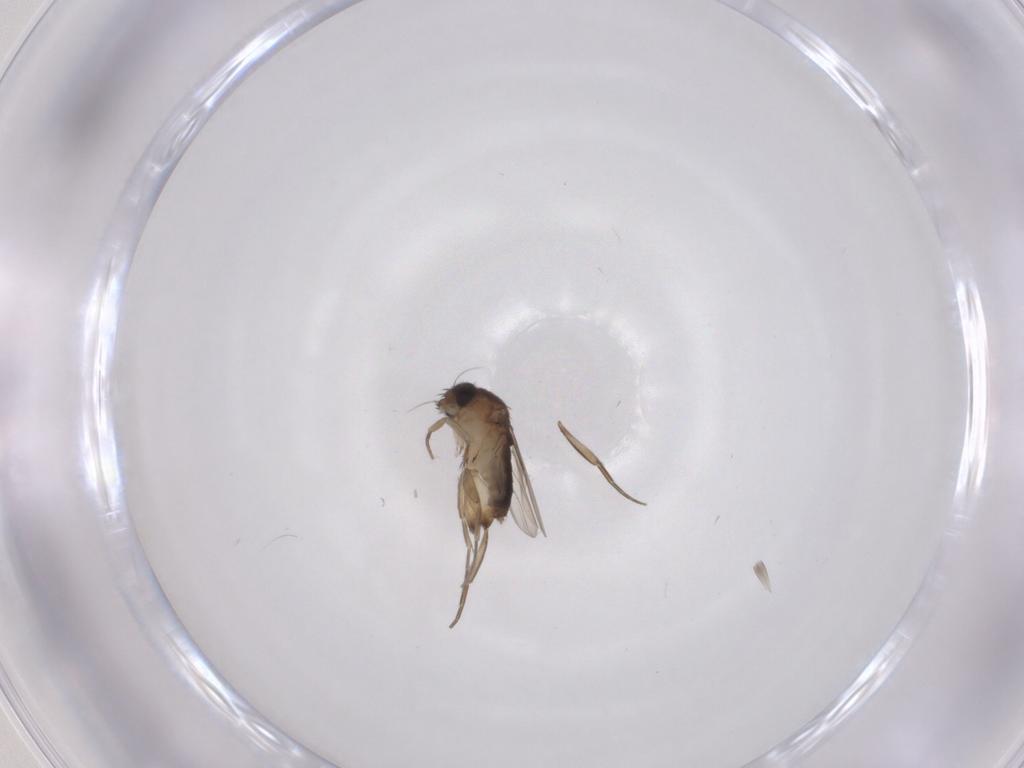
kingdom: Animalia
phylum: Arthropoda
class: Insecta
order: Diptera
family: Phoridae
